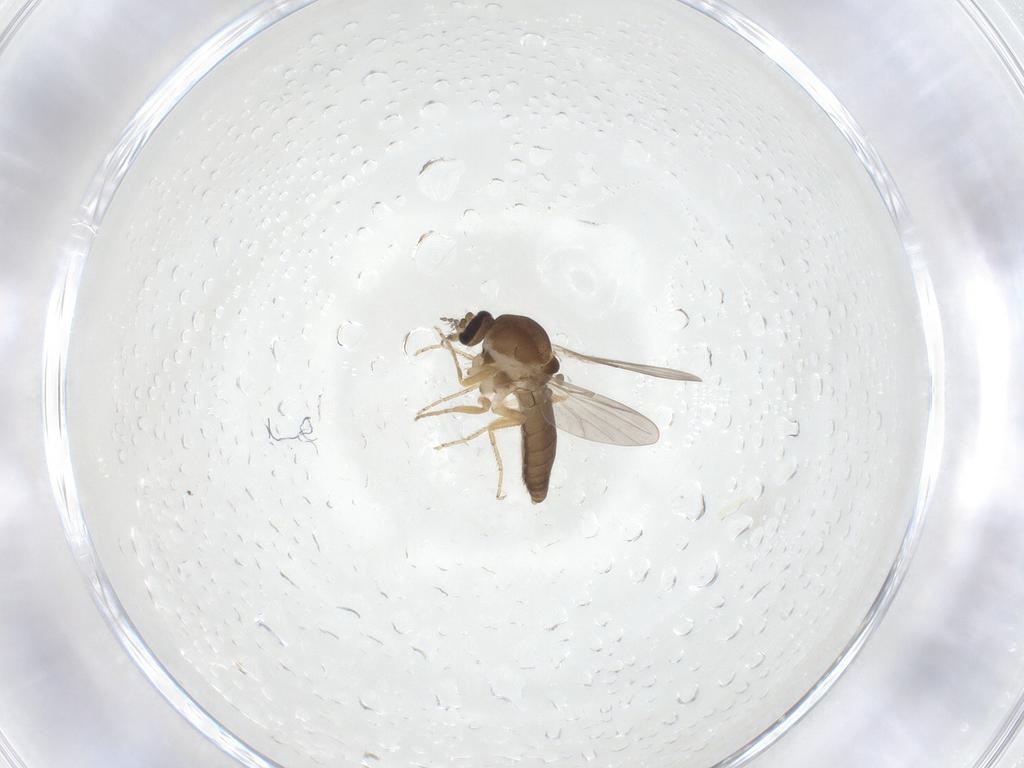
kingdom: Animalia
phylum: Arthropoda
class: Insecta
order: Diptera
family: Ceratopogonidae
